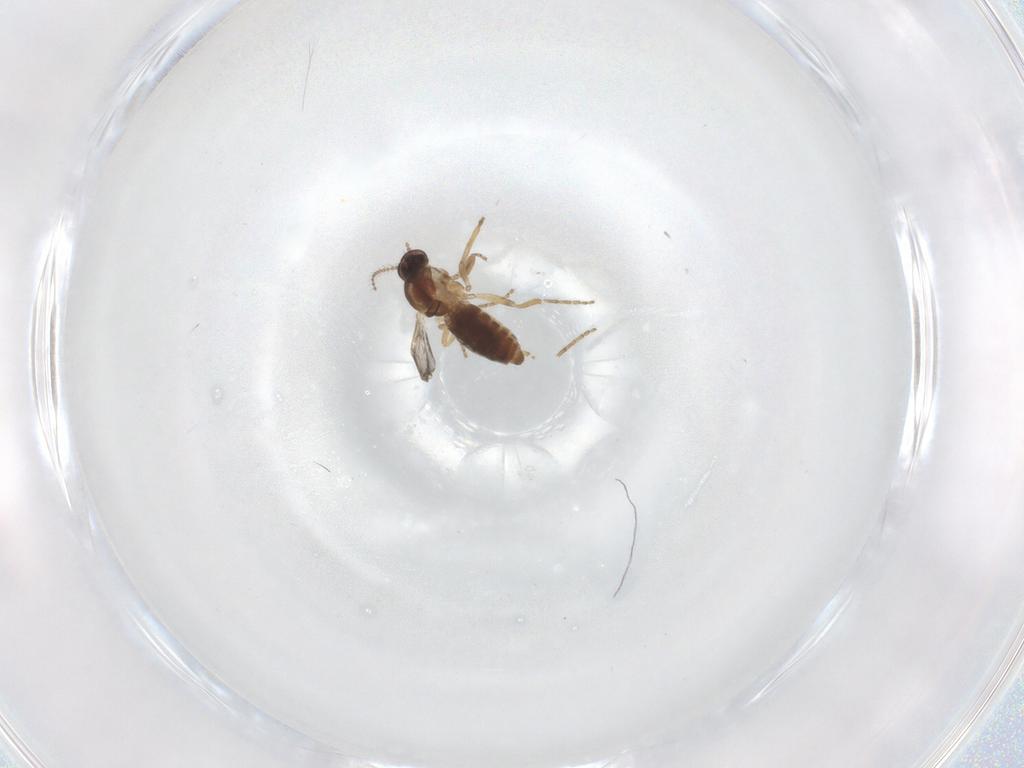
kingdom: Animalia
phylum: Arthropoda
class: Insecta
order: Diptera
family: Ceratopogonidae
